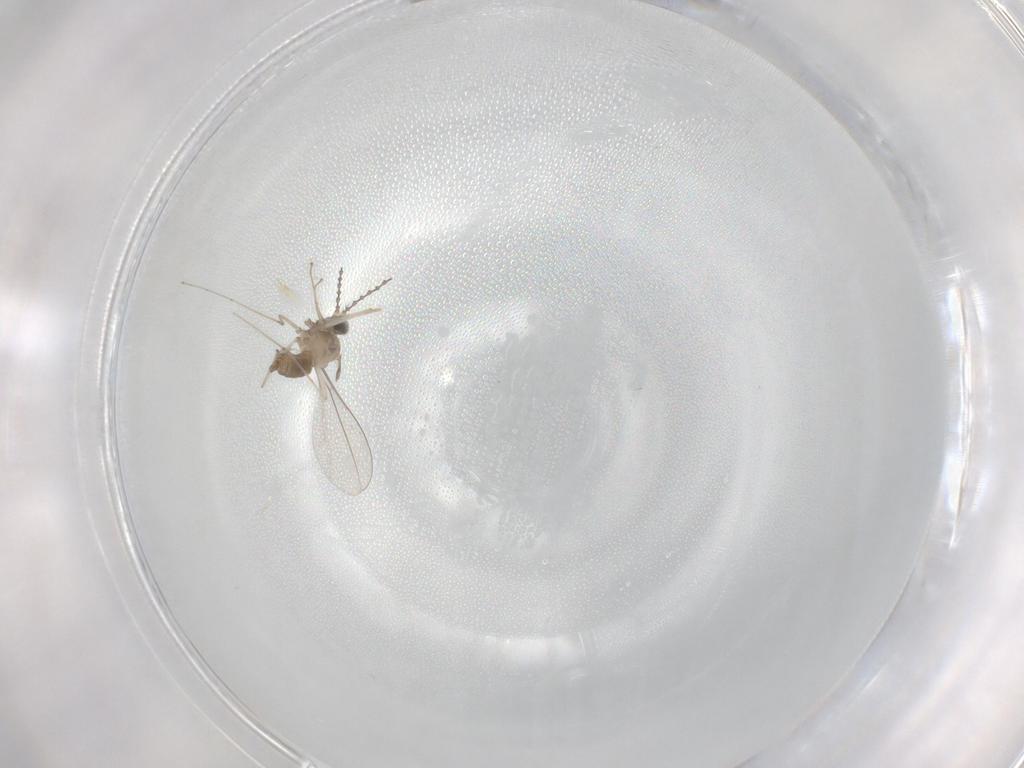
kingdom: Animalia
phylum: Arthropoda
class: Insecta
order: Diptera
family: Cecidomyiidae
